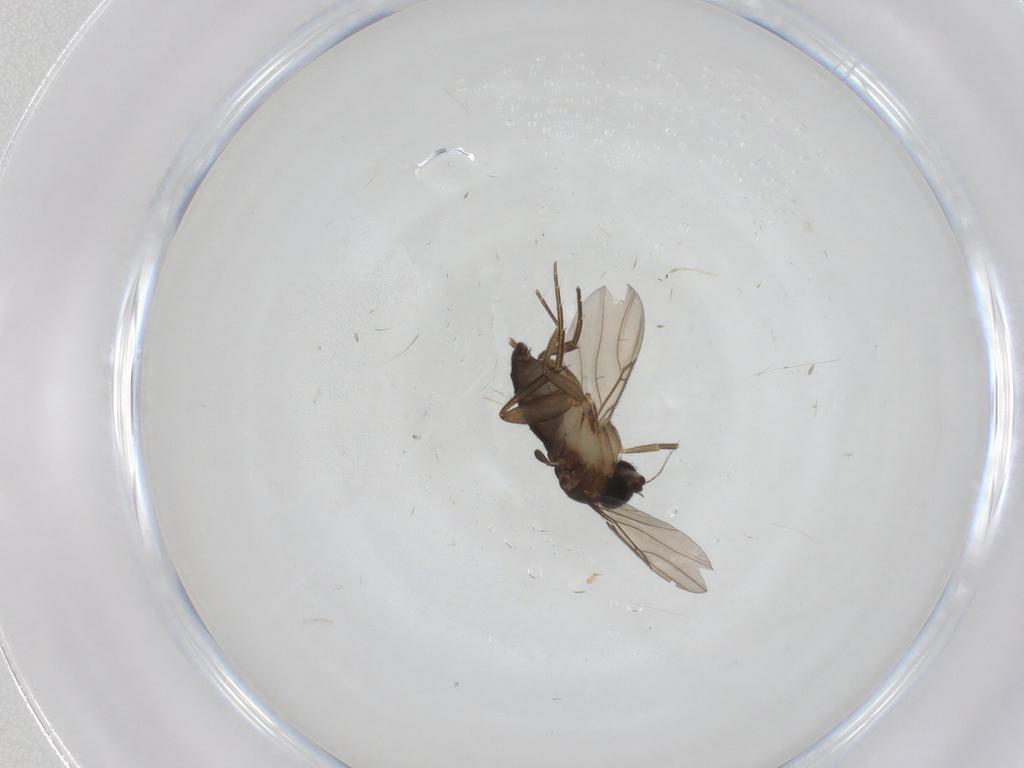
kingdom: Animalia
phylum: Arthropoda
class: Insecta
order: Diptera
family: Phoridae
